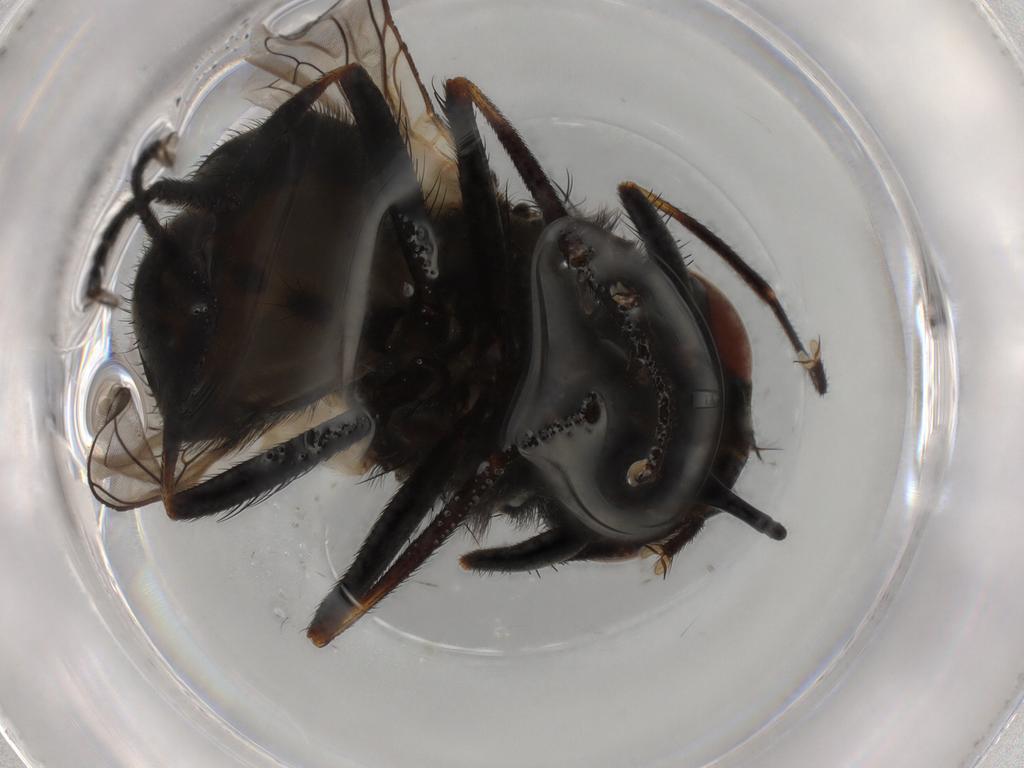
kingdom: Animalia
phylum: Arthropoda
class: Insecta
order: Diptera
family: Muscidae
